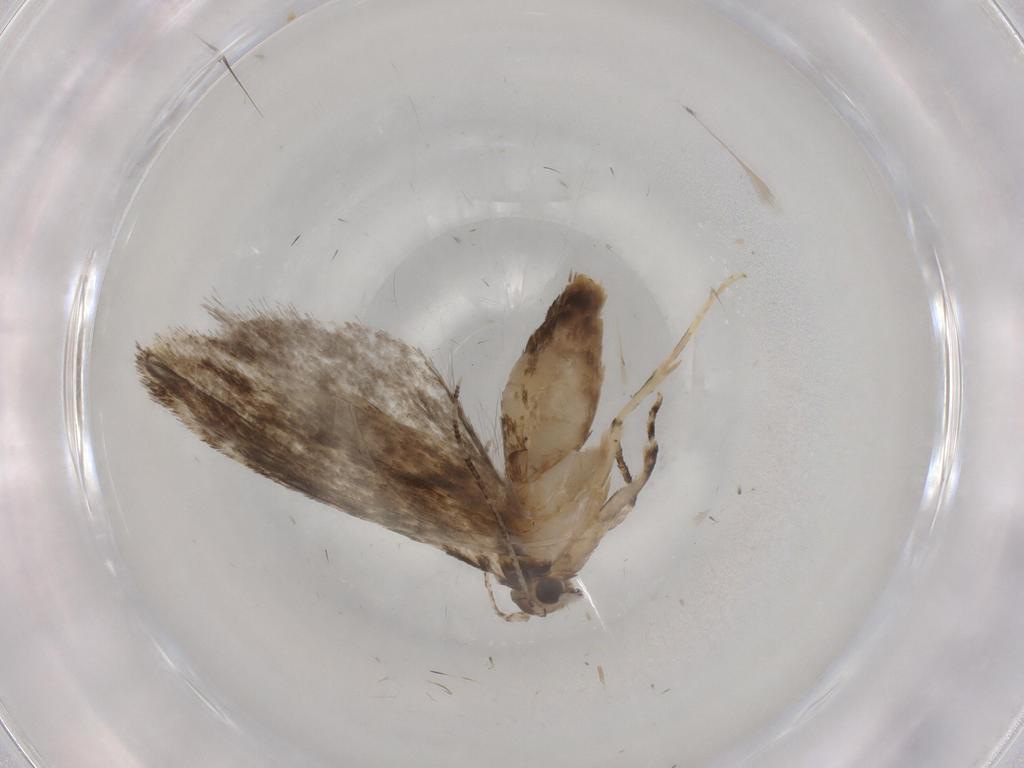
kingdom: Animalia
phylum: Arthropoda
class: Insecta
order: Lepidoptera
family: Tineidae
